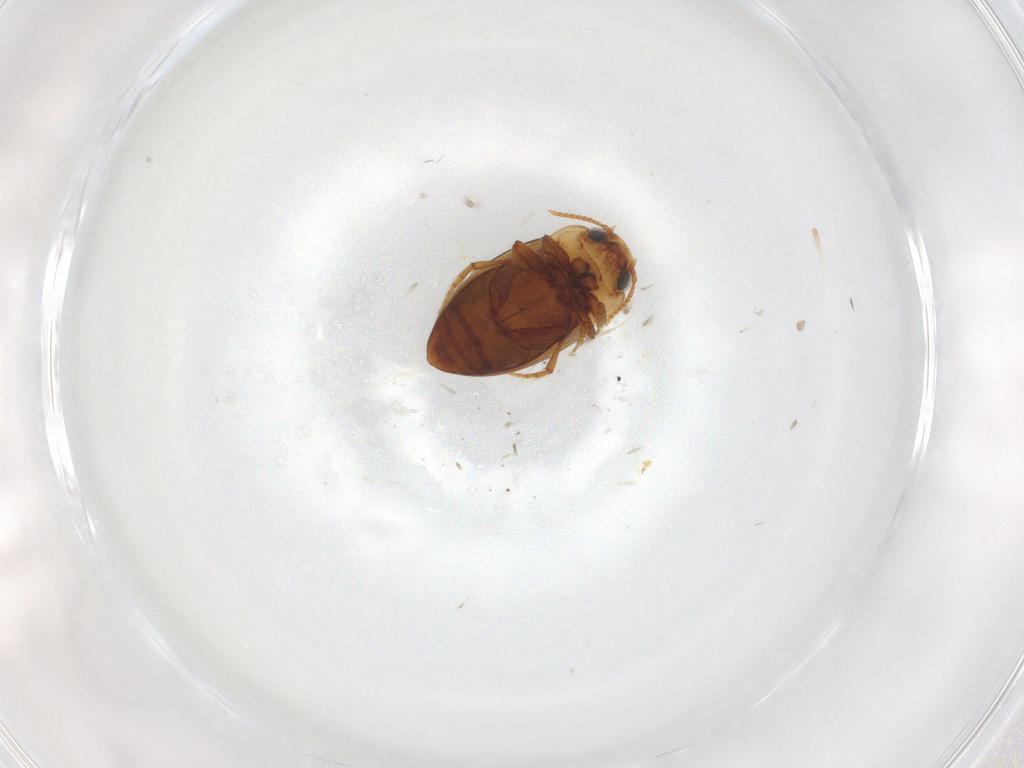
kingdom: Animalia
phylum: Arthropoda
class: Insecta
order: Coleoptera
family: Dytiscidae
